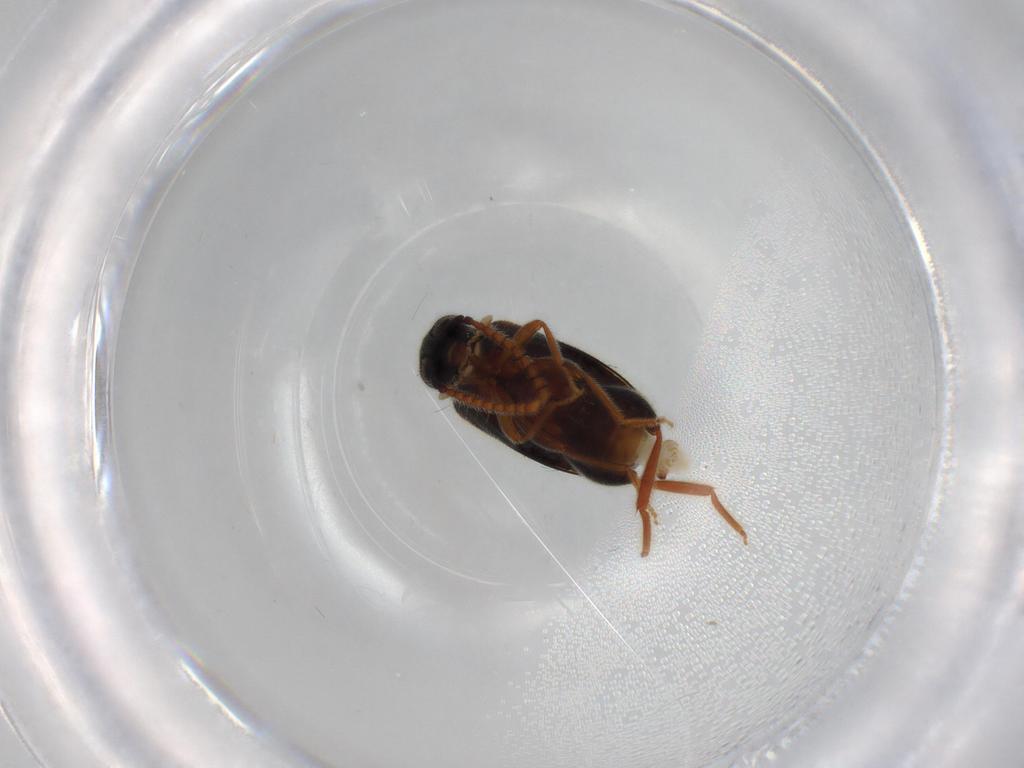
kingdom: Animalia
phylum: Arthropoda
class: Insecta
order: Coleoptera
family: Aderidae
